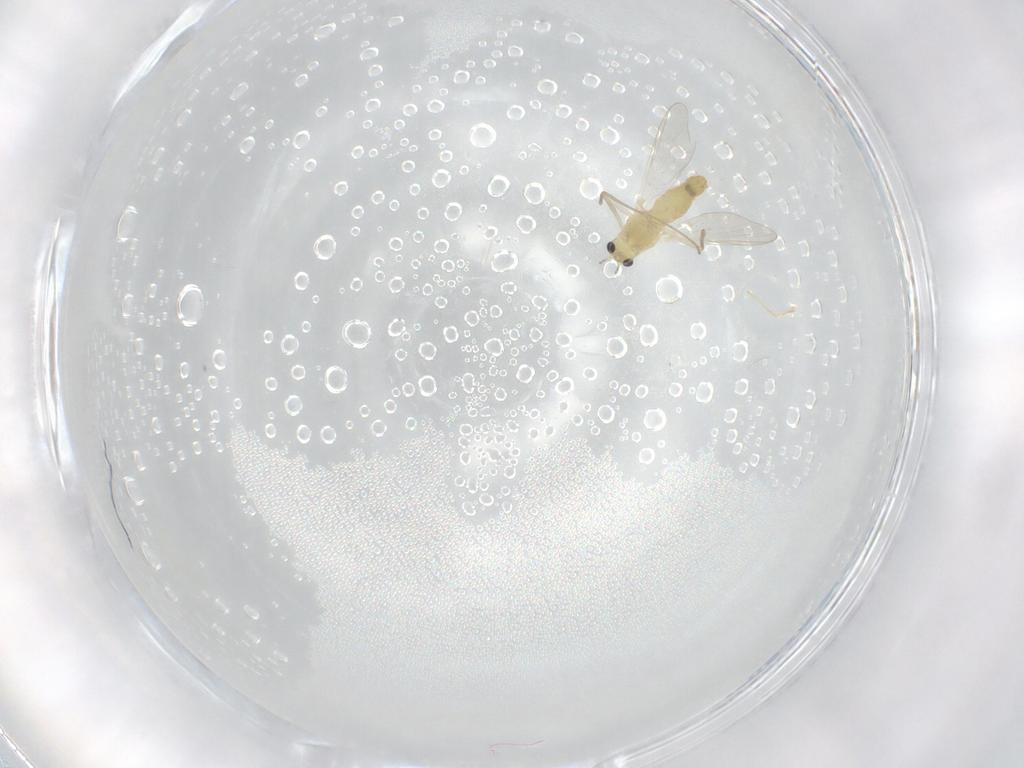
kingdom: Animalia
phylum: Arthropoda
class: Insecta
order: Diptera
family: Chironomidae
